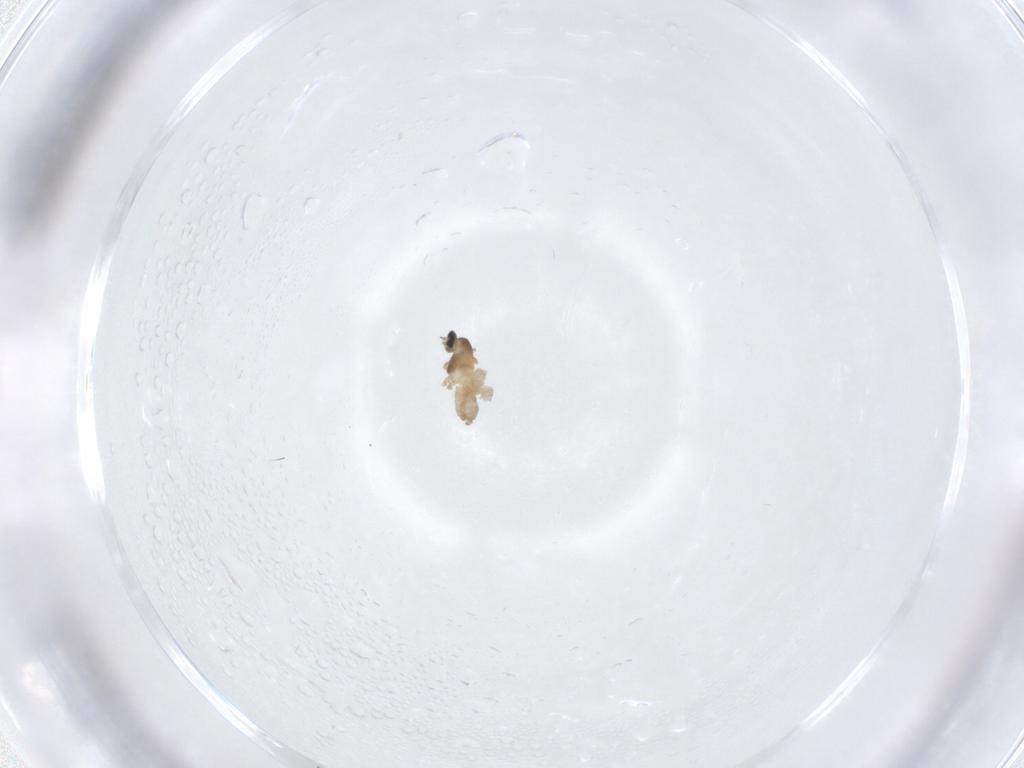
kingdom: Animalia
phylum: Arthropoda
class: Insecta
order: Diptera
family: Cecidomyiidae
